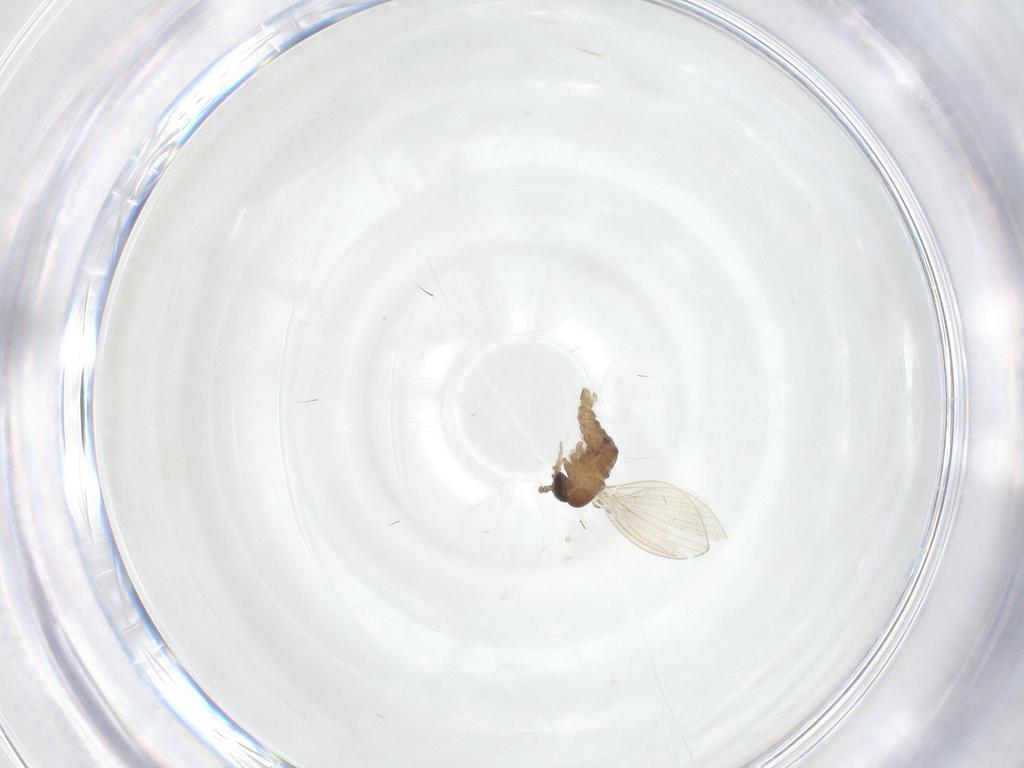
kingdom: Animalia
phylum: Arthropoda
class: Insecta
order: Diptera
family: Psychodidae
